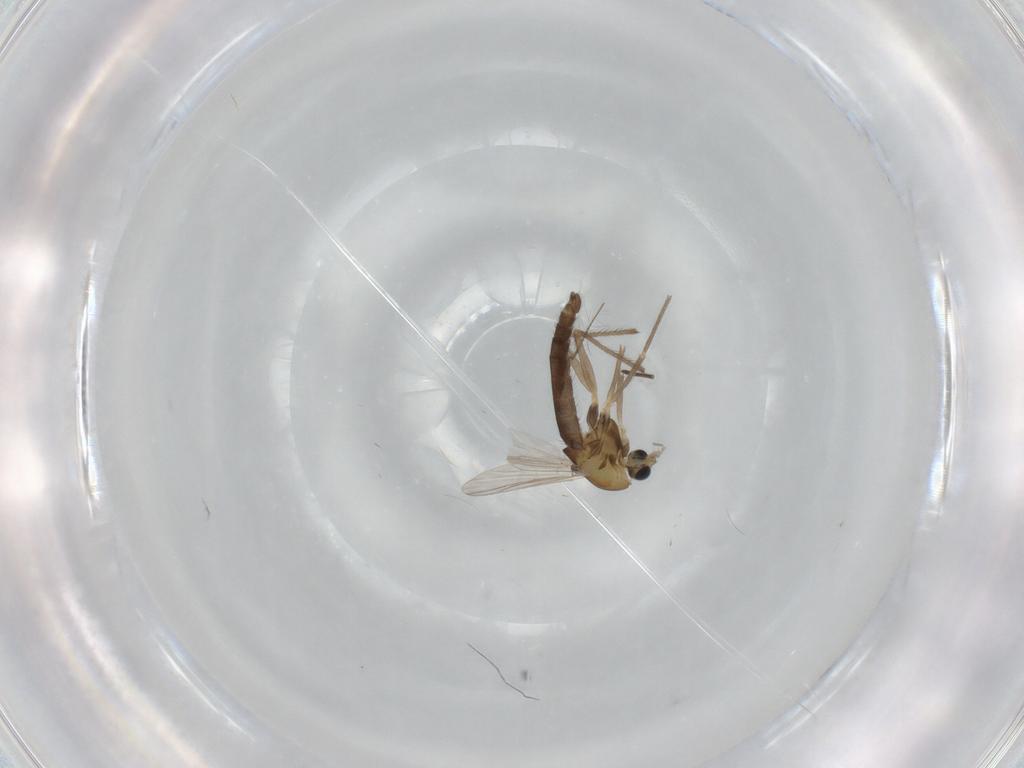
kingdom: Animalia
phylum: Arthropoda
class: Insecta
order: Diptera
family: Chironomidae
